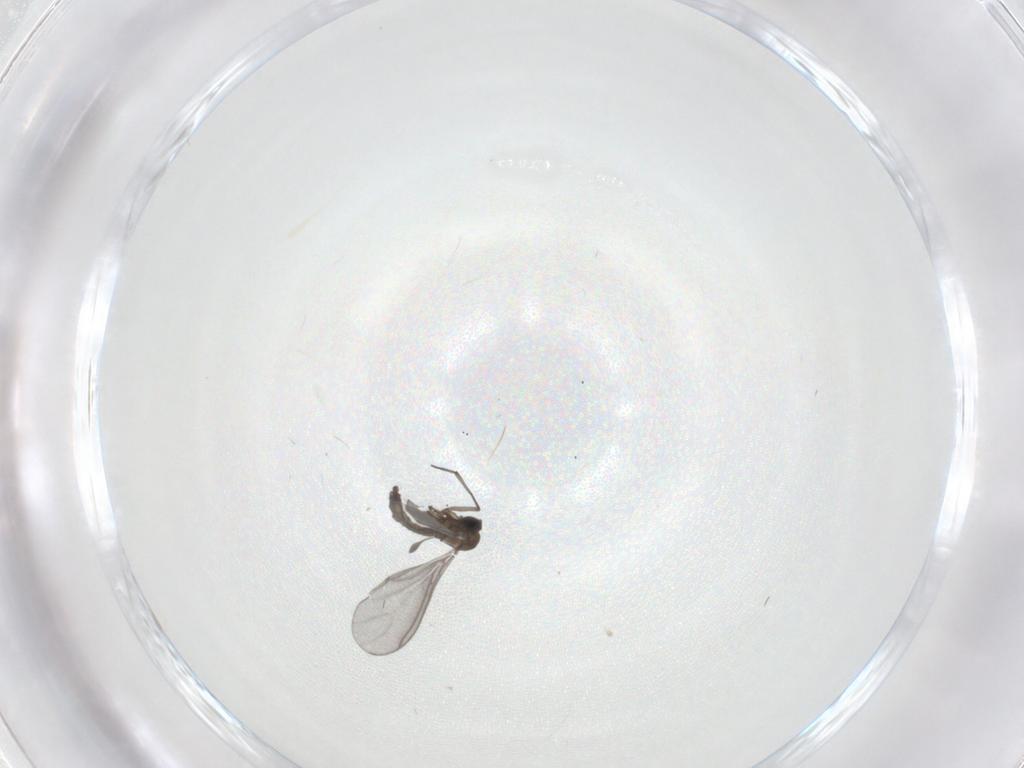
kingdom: Animalia
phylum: Arthropoda
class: Insecta
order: Diptera
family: Sciaridae
